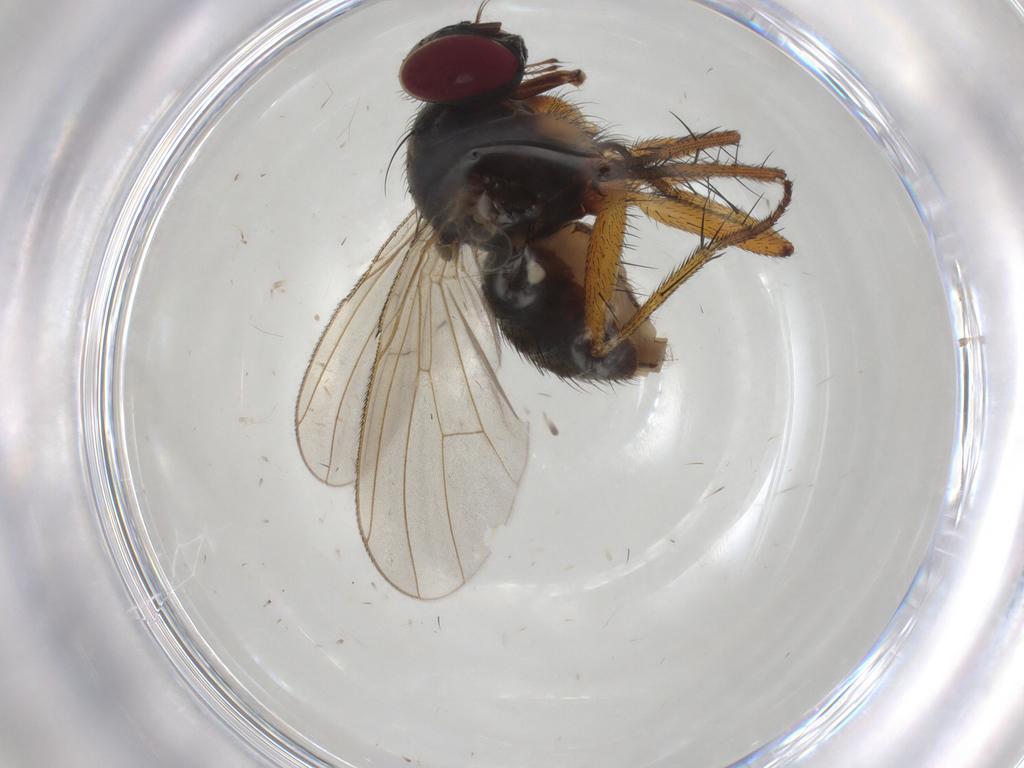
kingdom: Animalia
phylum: Arthropoda
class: Insecta
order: Diptera
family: Muscidae
